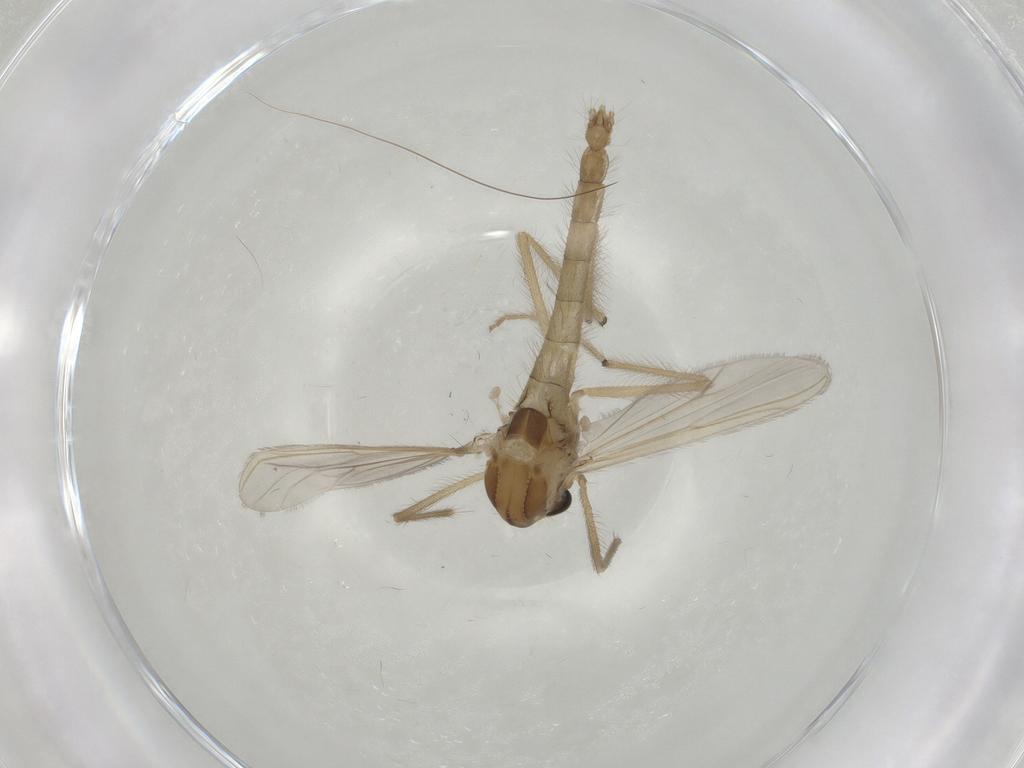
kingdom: Animalia
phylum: Arthropoda
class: Insecta
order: Diptera
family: Chironomidae
